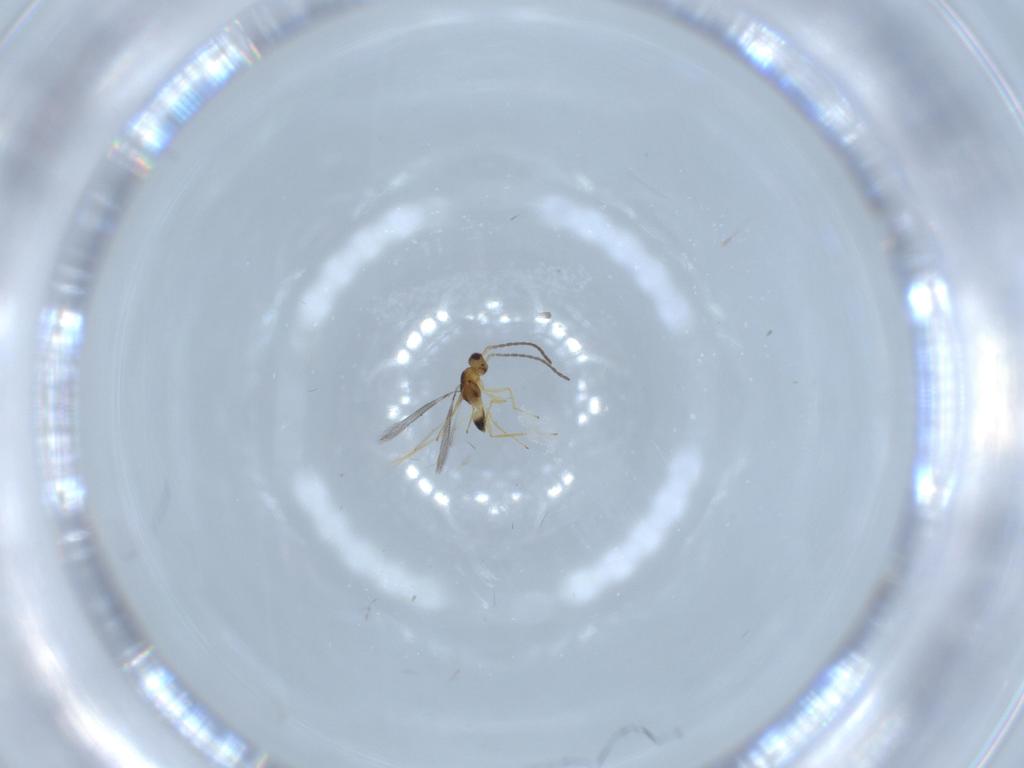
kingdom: Animalia
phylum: Arthropoda
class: Insecta
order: Hymenoptera
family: Mymaridae
